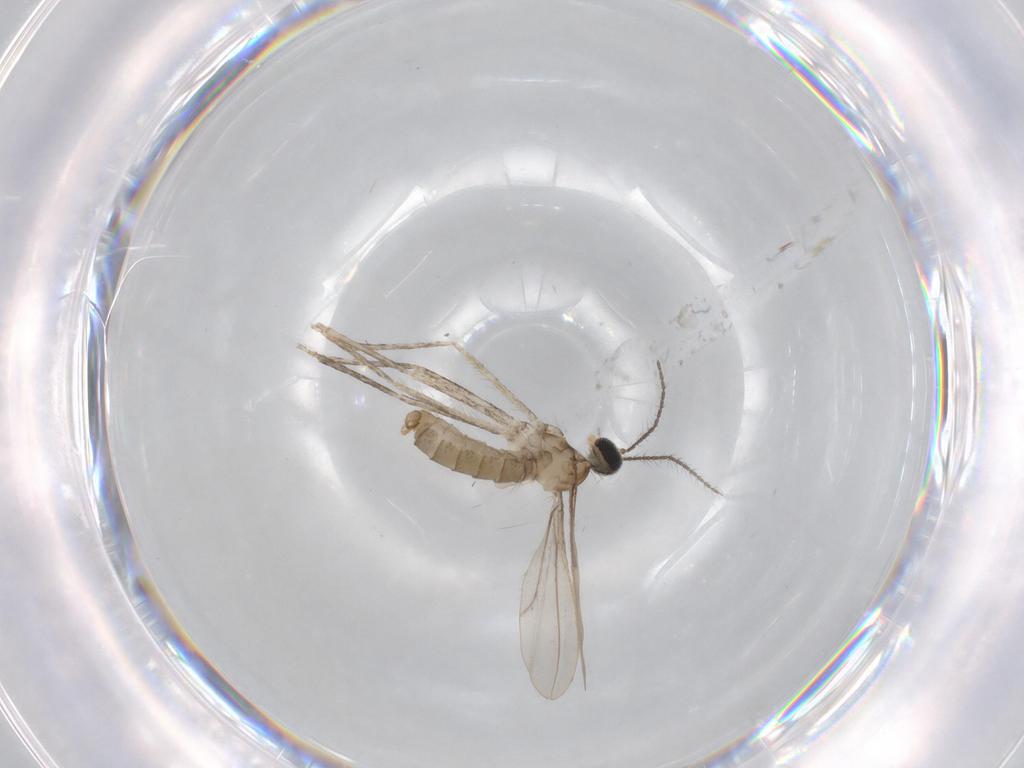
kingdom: Animalia
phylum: Arthropoda
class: Insecta
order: Diptera
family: Cecidomyiidae
